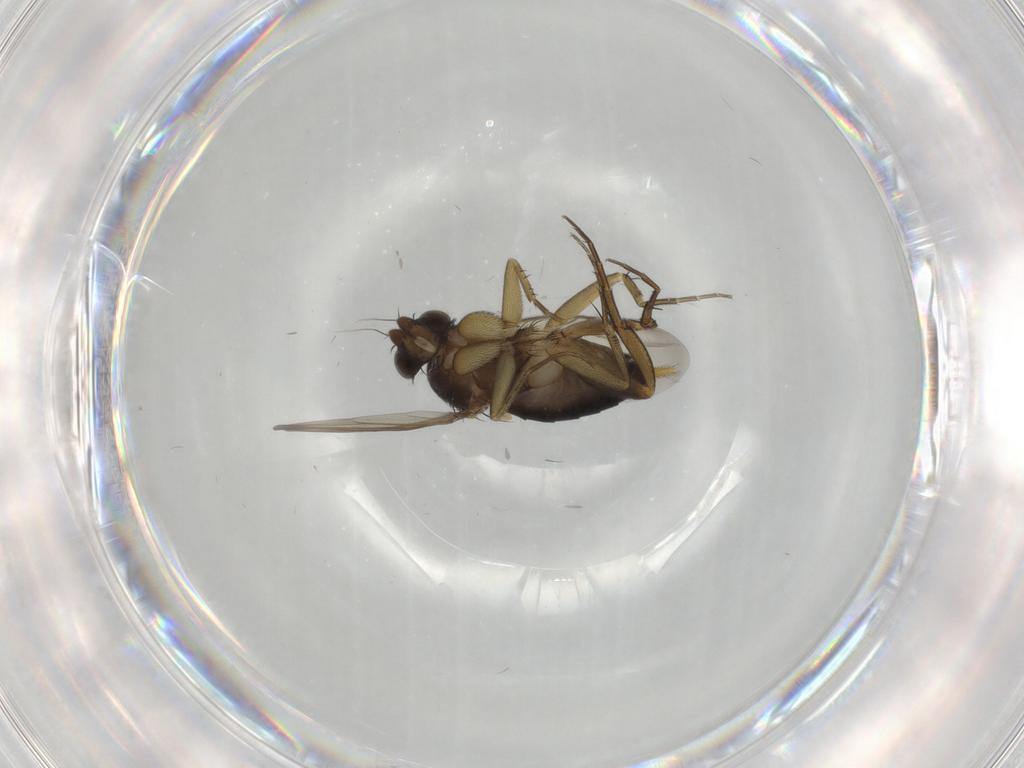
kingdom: Animalia
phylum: Arthropoda
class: Insecta
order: Diptera
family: Phoridae
